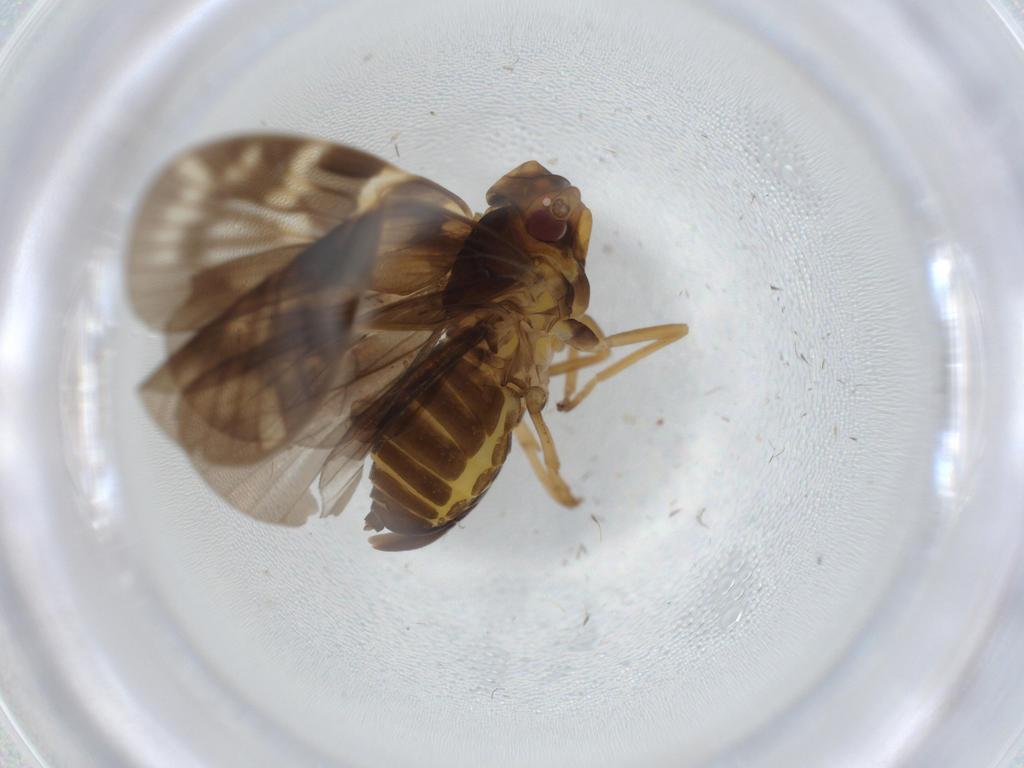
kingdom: Animalia
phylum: Arthropoda
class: Insecta
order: Hemiptera
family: Cixiidae
